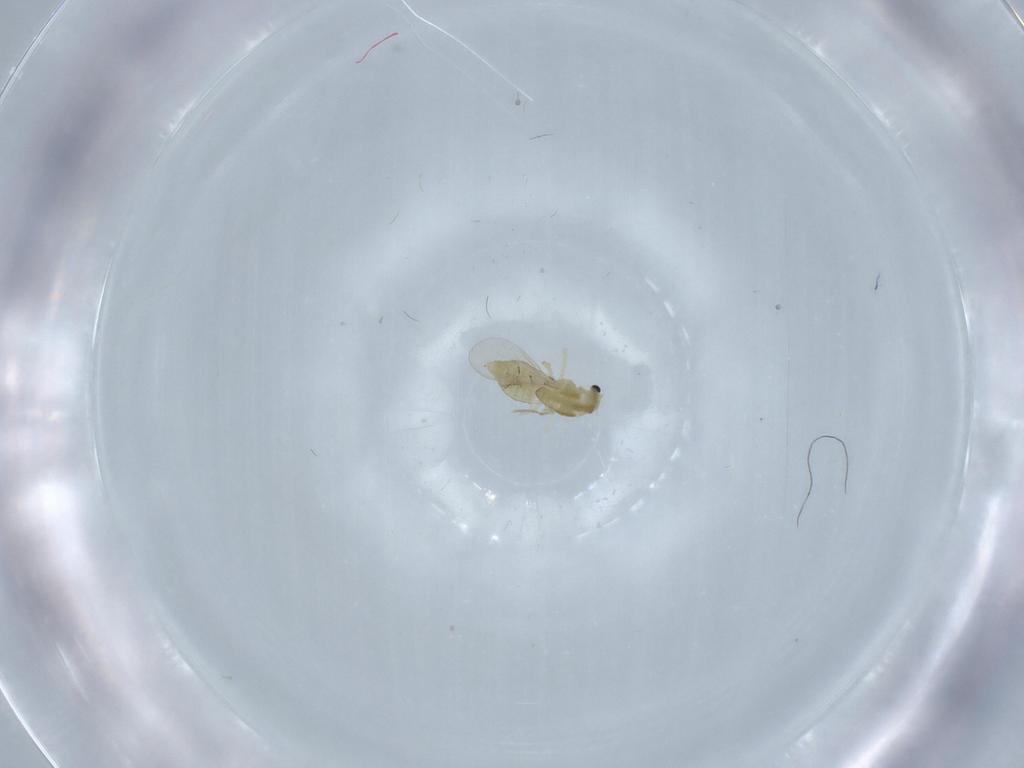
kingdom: Animalia
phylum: Arthropoda
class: Insecta
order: Diptera
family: Chironomidae
